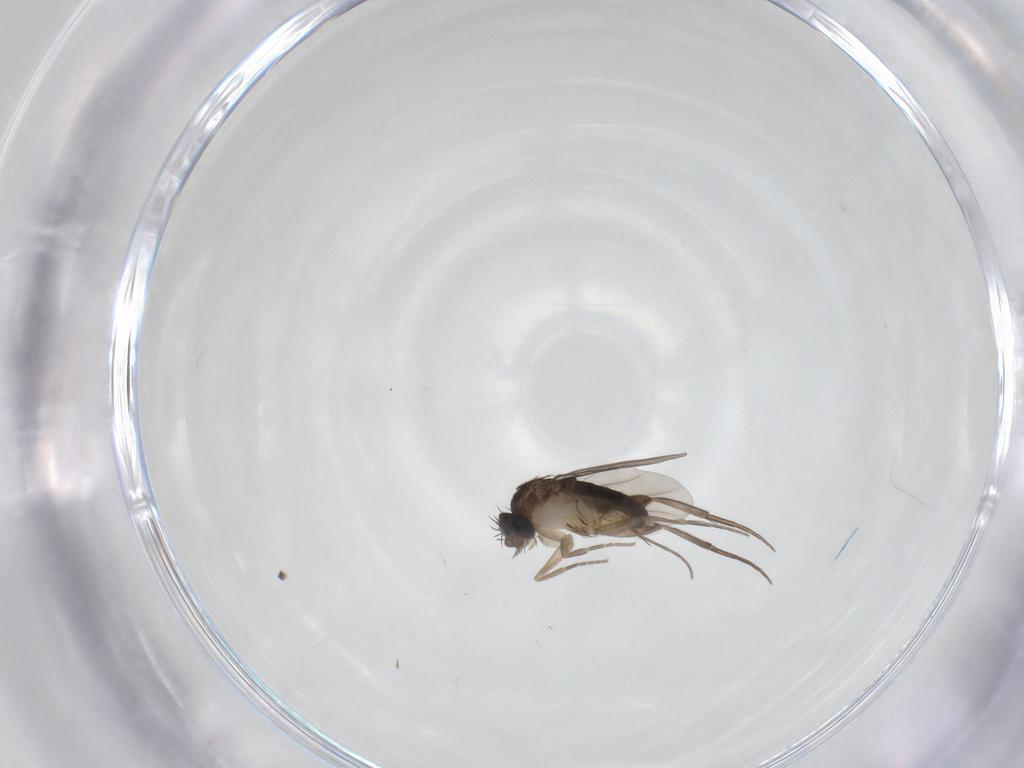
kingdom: Animalia
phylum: Arthropoda
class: Insecta
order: Diptera
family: Phoridae
